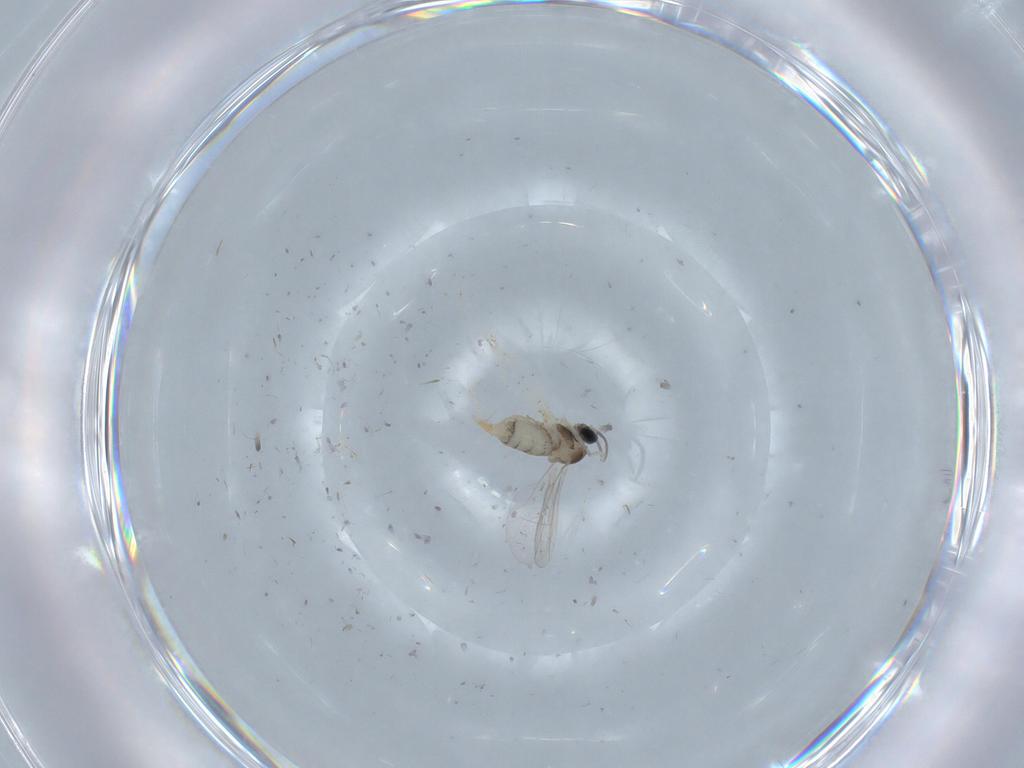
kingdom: Animalia
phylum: Arthropoda
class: Insecta
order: Diptera
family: Cecidomyiidae
